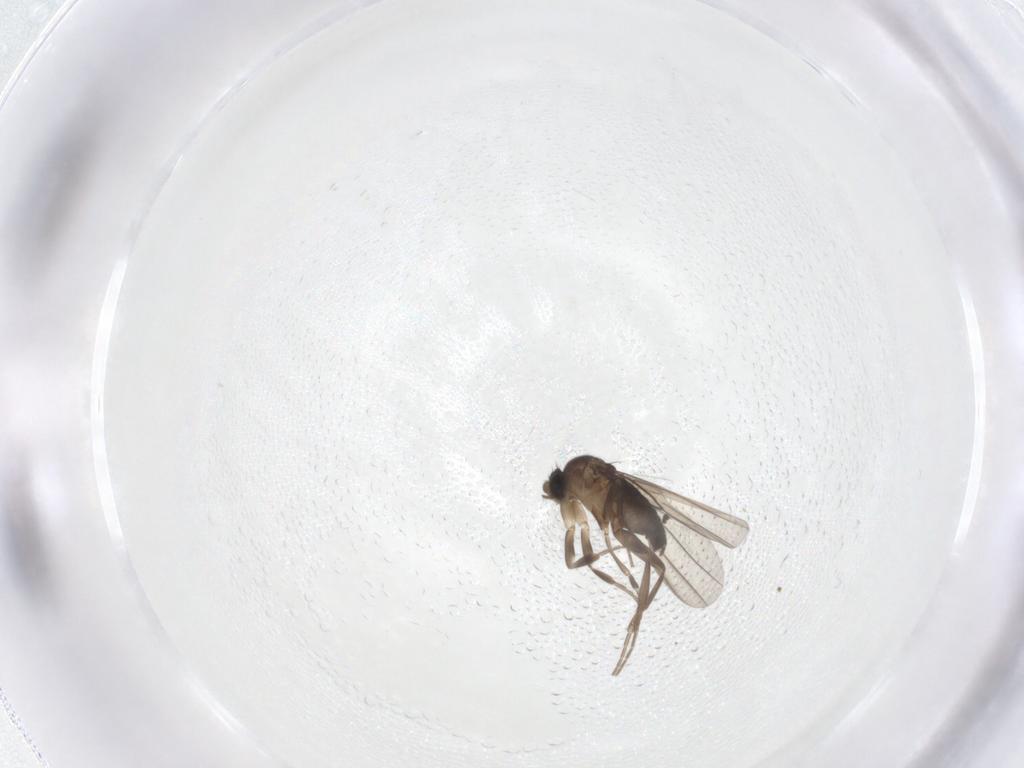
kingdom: Animalia
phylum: Arthropoda
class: Insecta
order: Diptera
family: Phoridae
